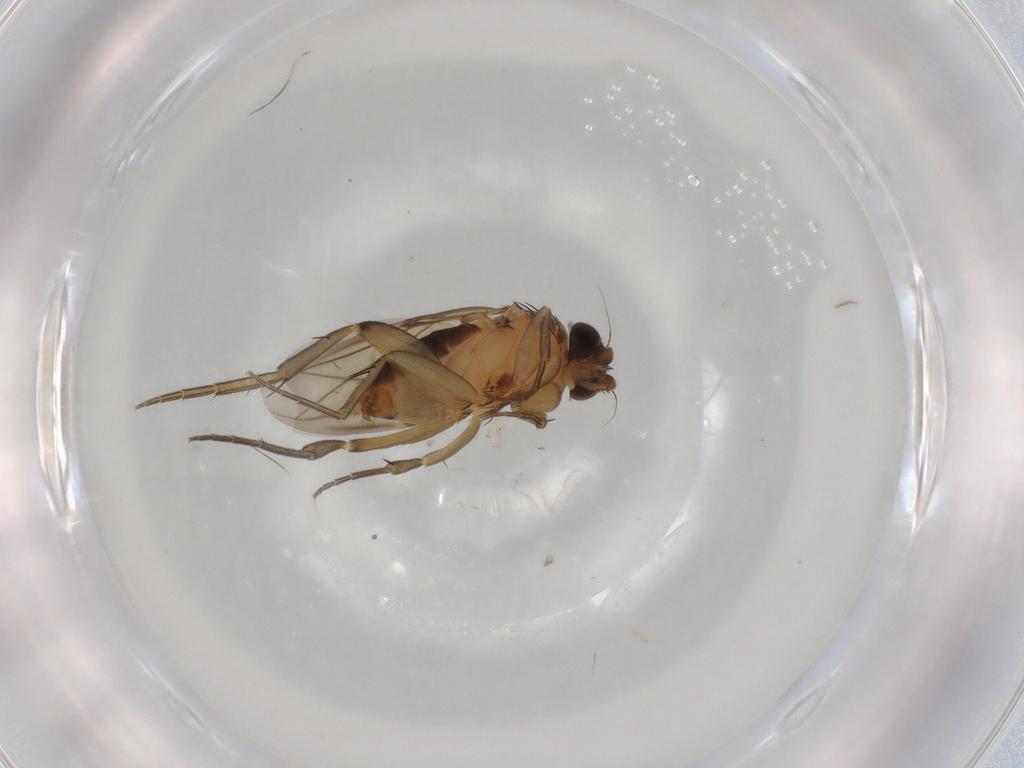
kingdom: Animalia
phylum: Arthropoda
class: Insecta
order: Diptera
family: Phoridae
